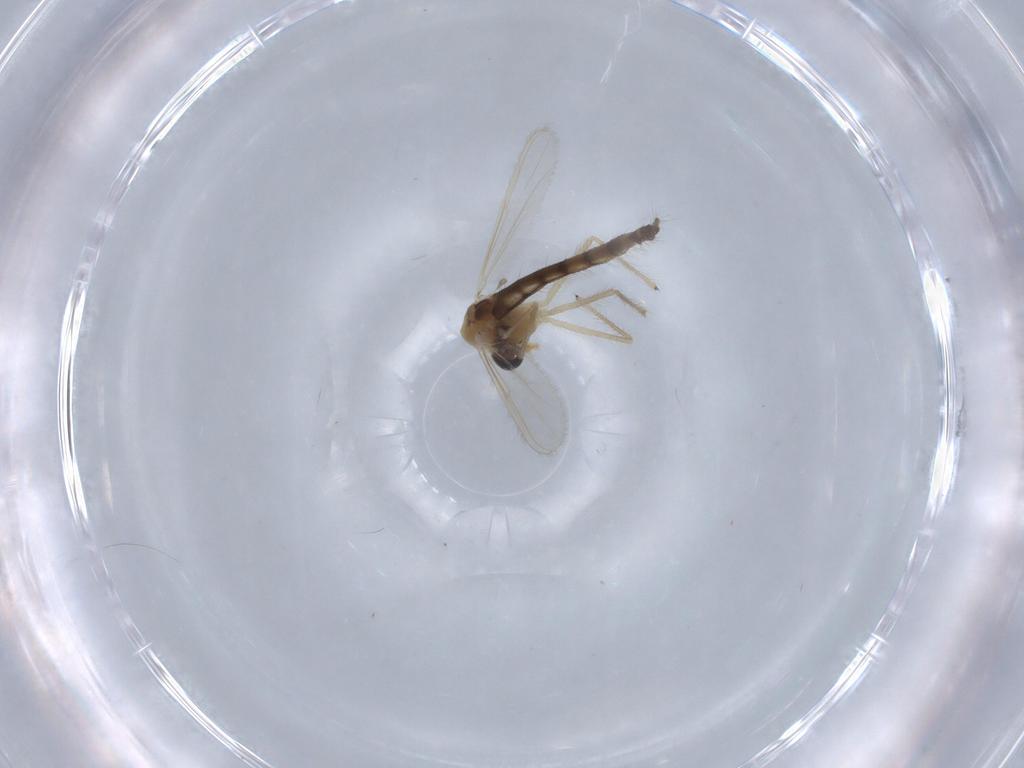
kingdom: Animalia
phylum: Arthropoda
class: Insecta
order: Diptera
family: Chironomidae
